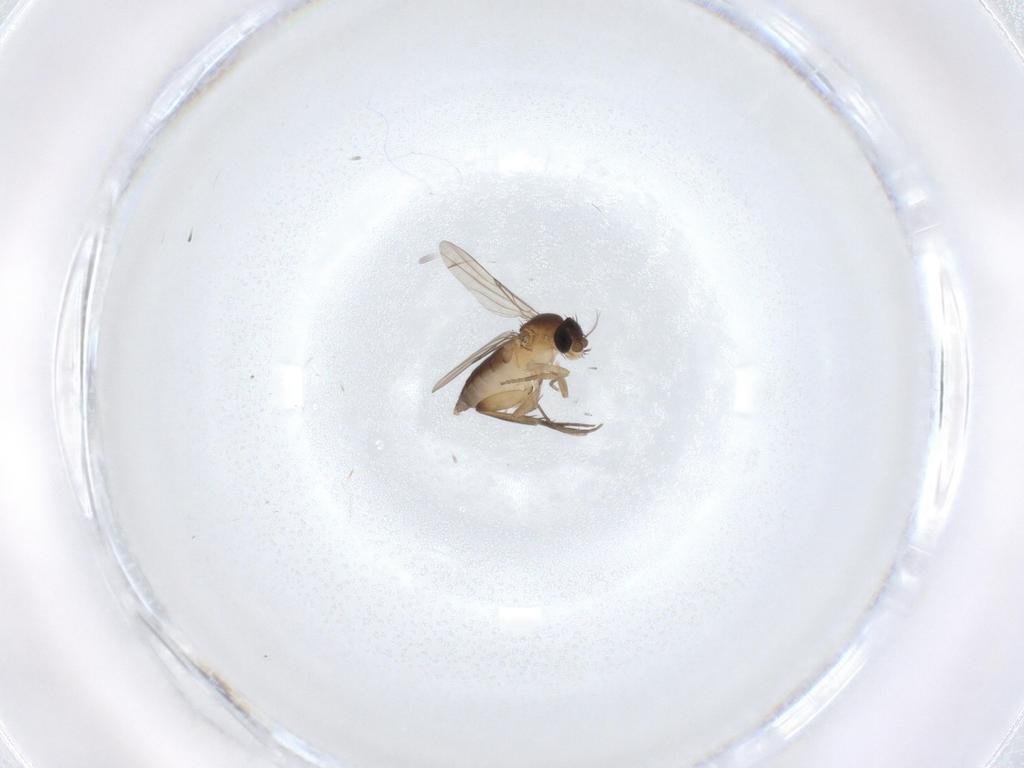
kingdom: Animalia
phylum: Arthropoda
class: Insecta
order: Diptera
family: Phoridae
